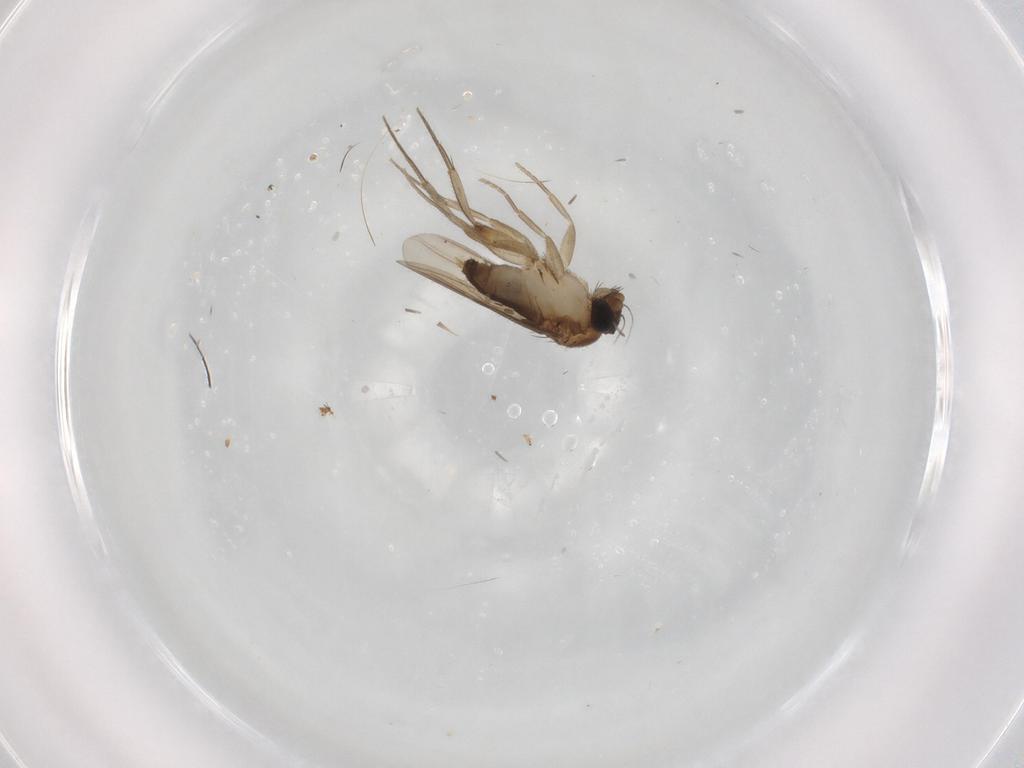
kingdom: Animalia
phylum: Arthropoda
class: Insecta
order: Diptera
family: Phoridae
